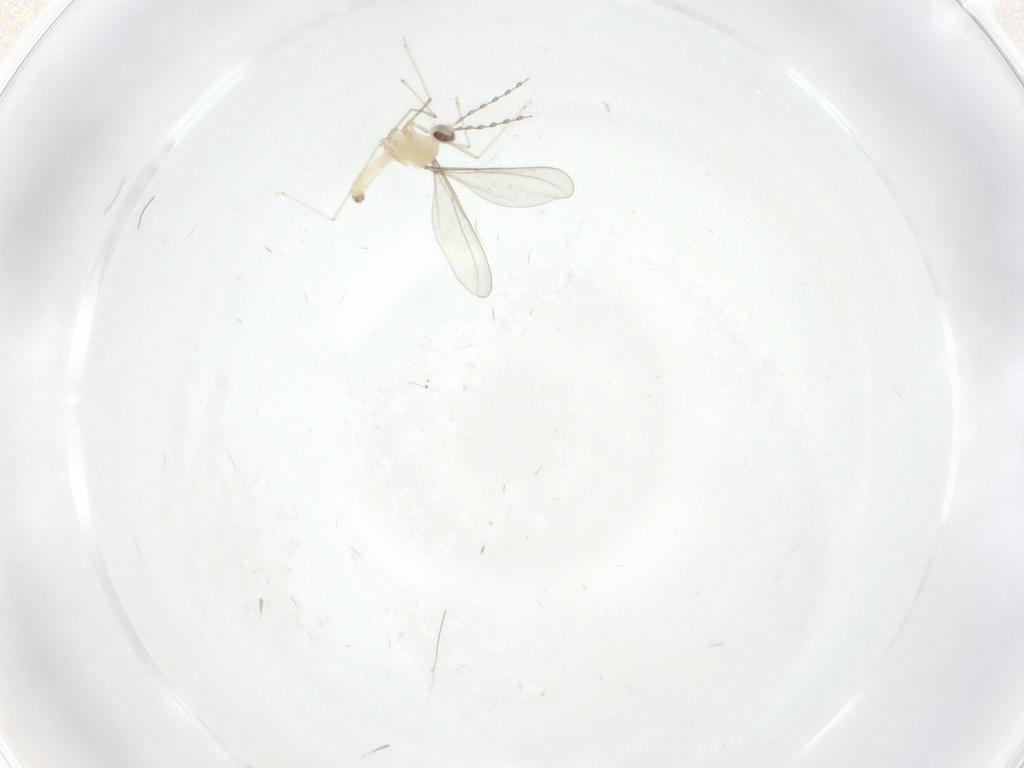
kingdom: Animalia
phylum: Arthropoda
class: Insecta
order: Diptera
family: Cecidomyiidae
